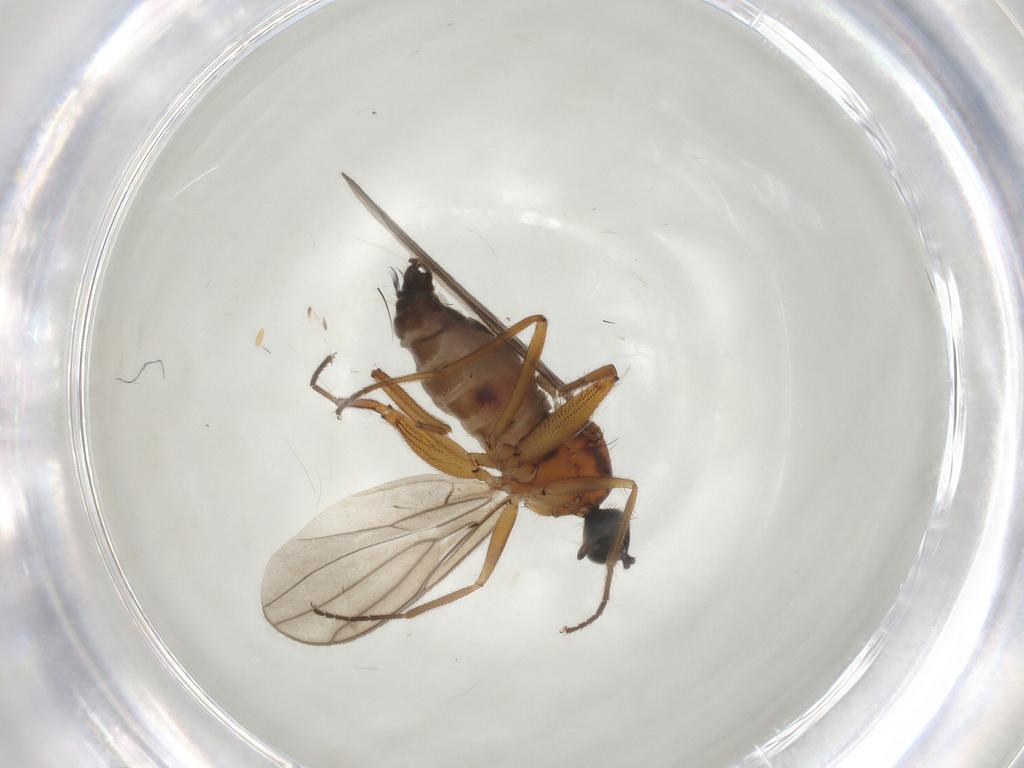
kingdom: Animalia
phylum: Arthropoda
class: Insecta
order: Diptera
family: Hybotidae
